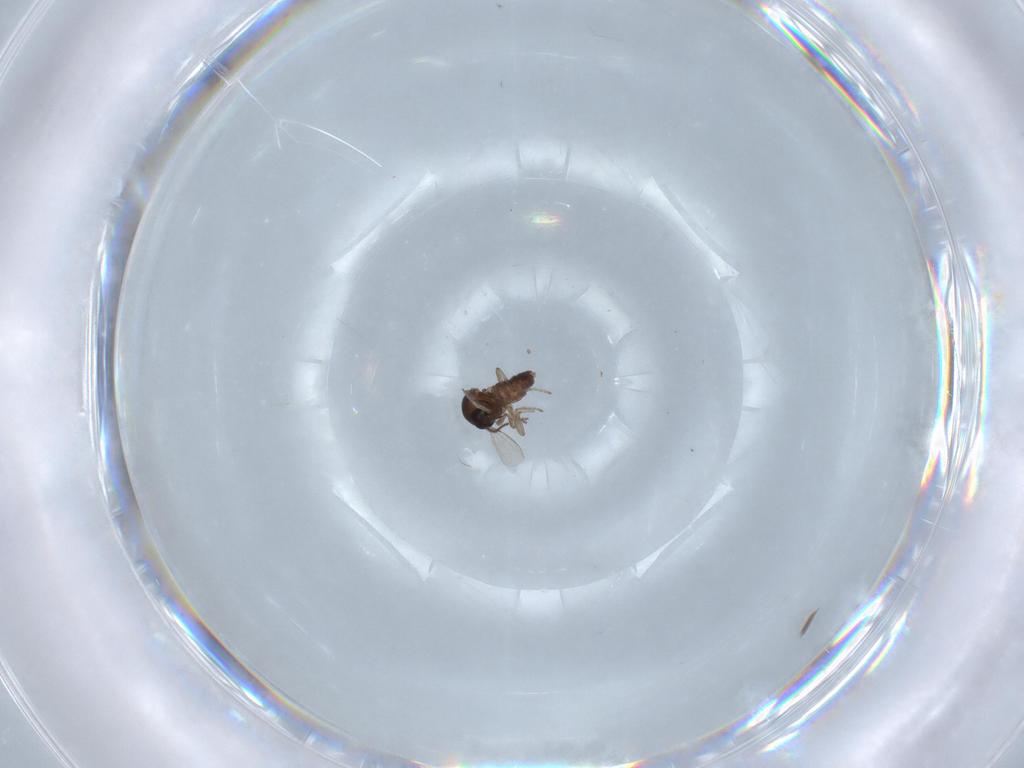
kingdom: Animalia
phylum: Arthropoda
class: Insecta
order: Diptera
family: Ceratopogonidae
